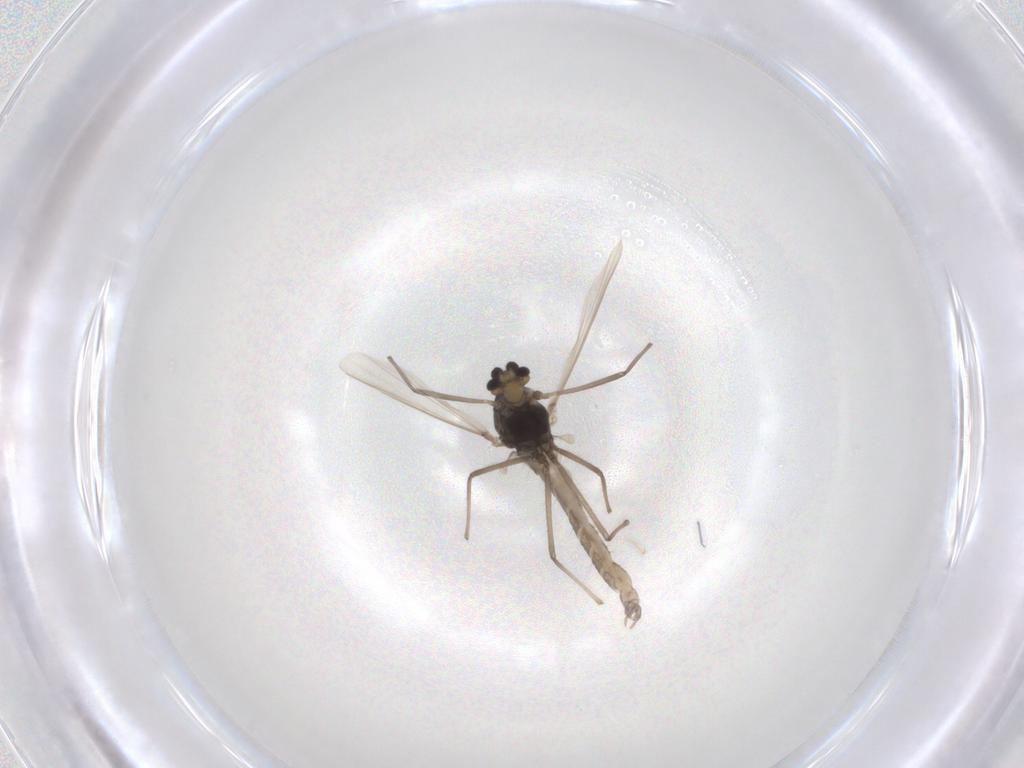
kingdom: Animalia
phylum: Arthropoda
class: Insecta
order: Diptera
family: Chironomidae
